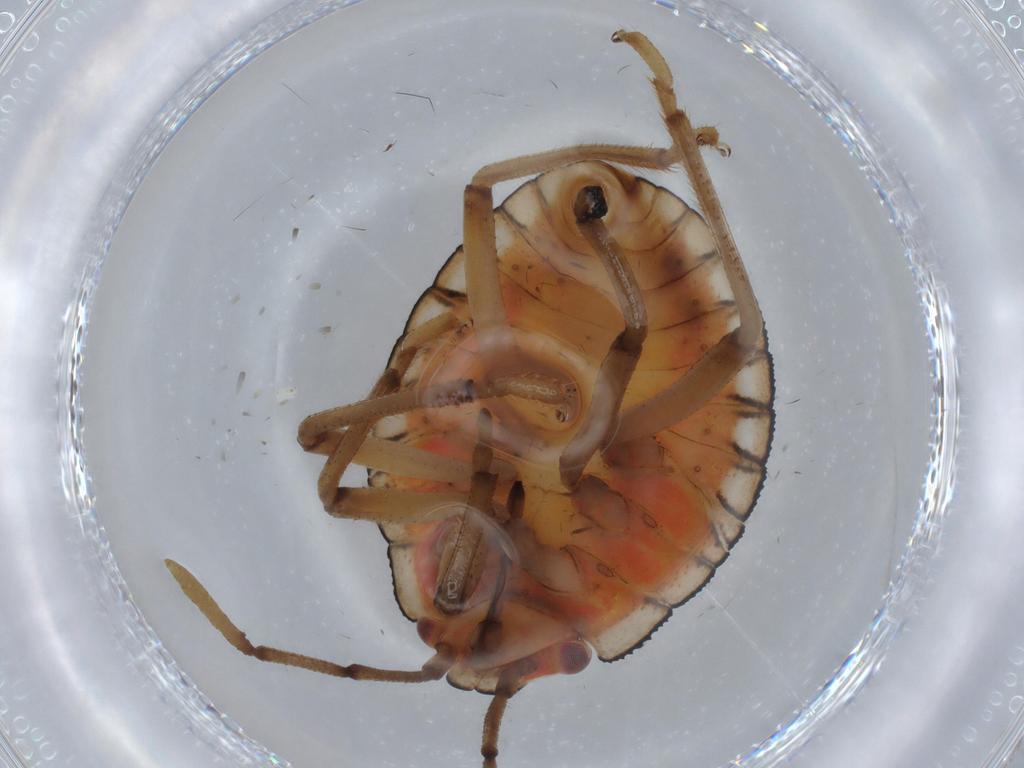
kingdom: Animalia
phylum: Arthropoda
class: Insecta
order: Hemiptera
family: Pentatomidae
